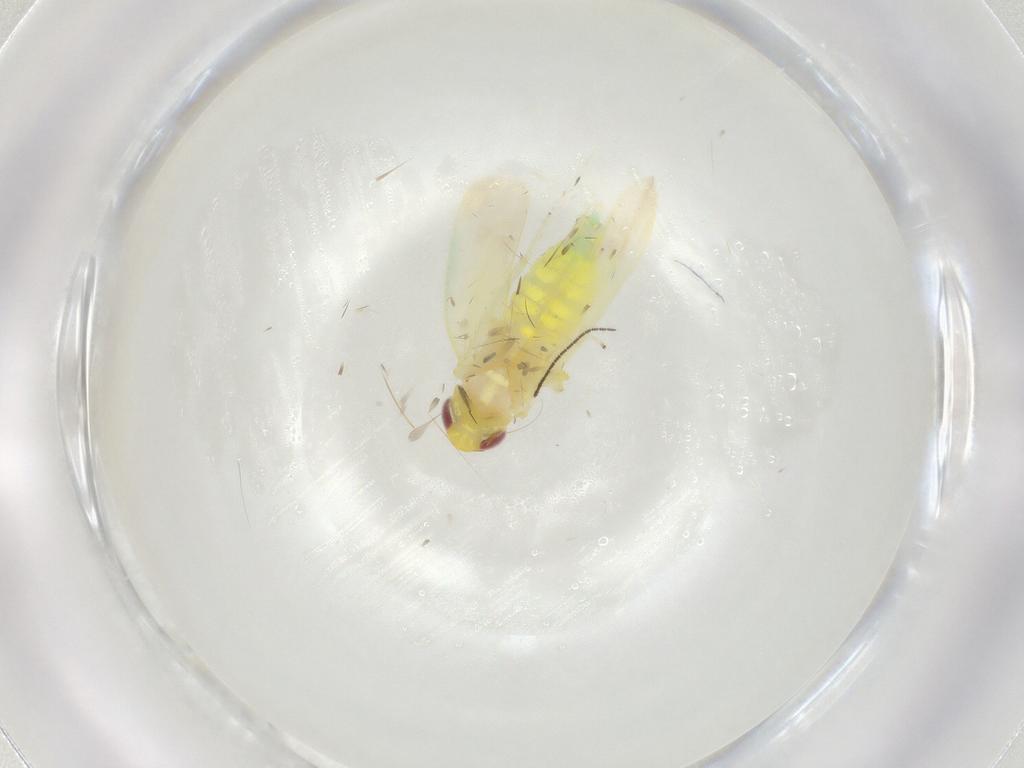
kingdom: Animalia
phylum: Arthropoda
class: Insecta
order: Hemiptera
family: Cicadellidae
